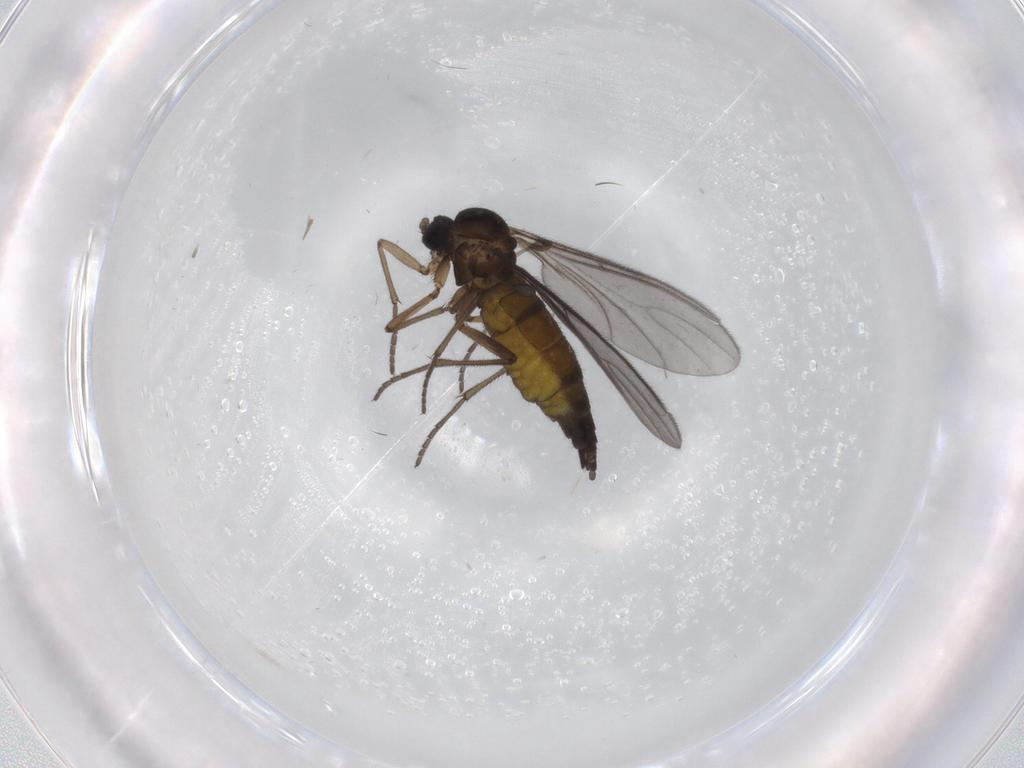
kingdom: Animalia
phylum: Arthropoda
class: Insecta
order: Diptera
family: Sciaridae
